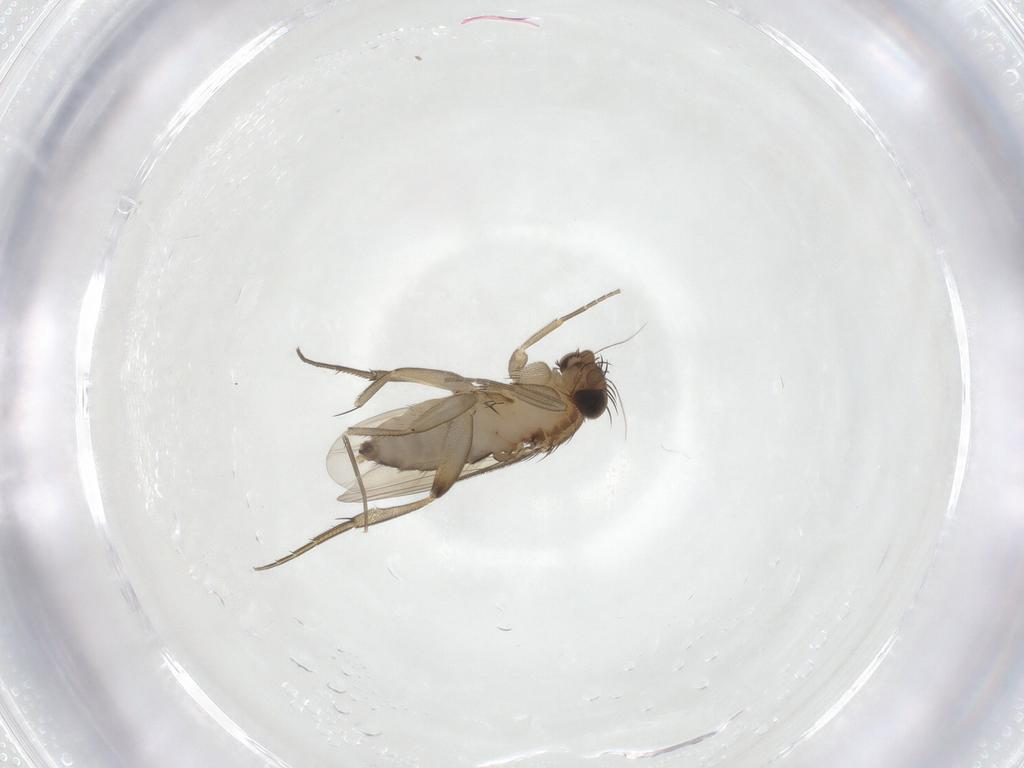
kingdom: Animalia
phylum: Arthropoda
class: Insecta
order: Diptera
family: Phoridae
